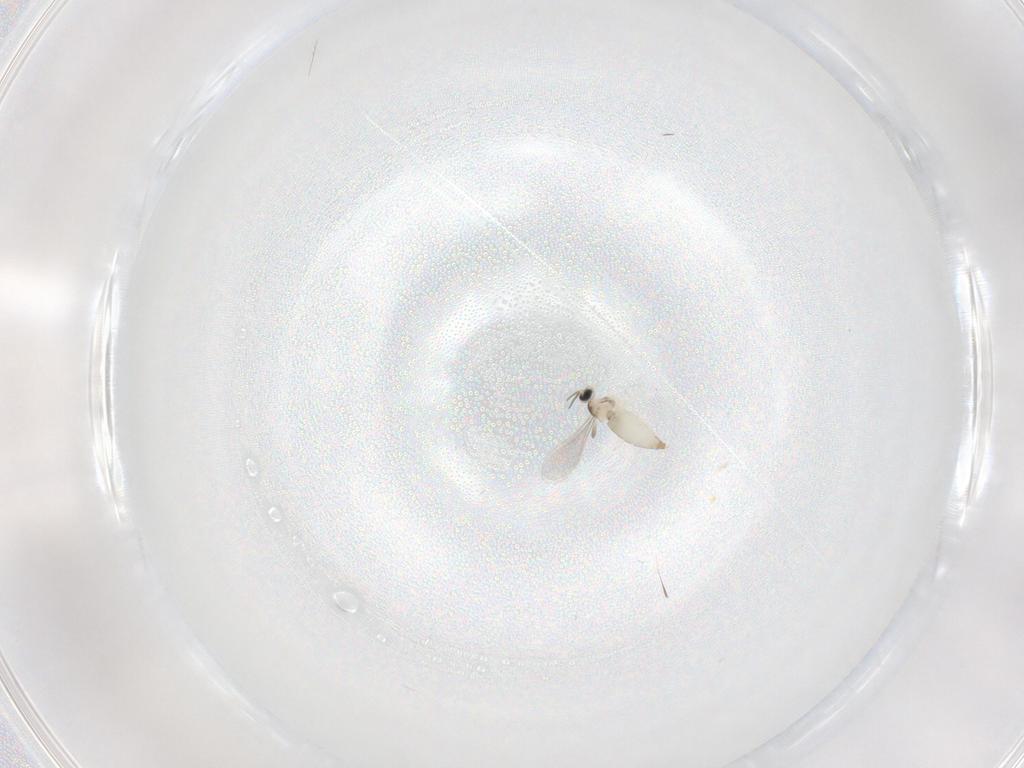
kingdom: Animalia
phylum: Arthropoda
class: Insecta
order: Diptera
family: Cecidomyiidae
